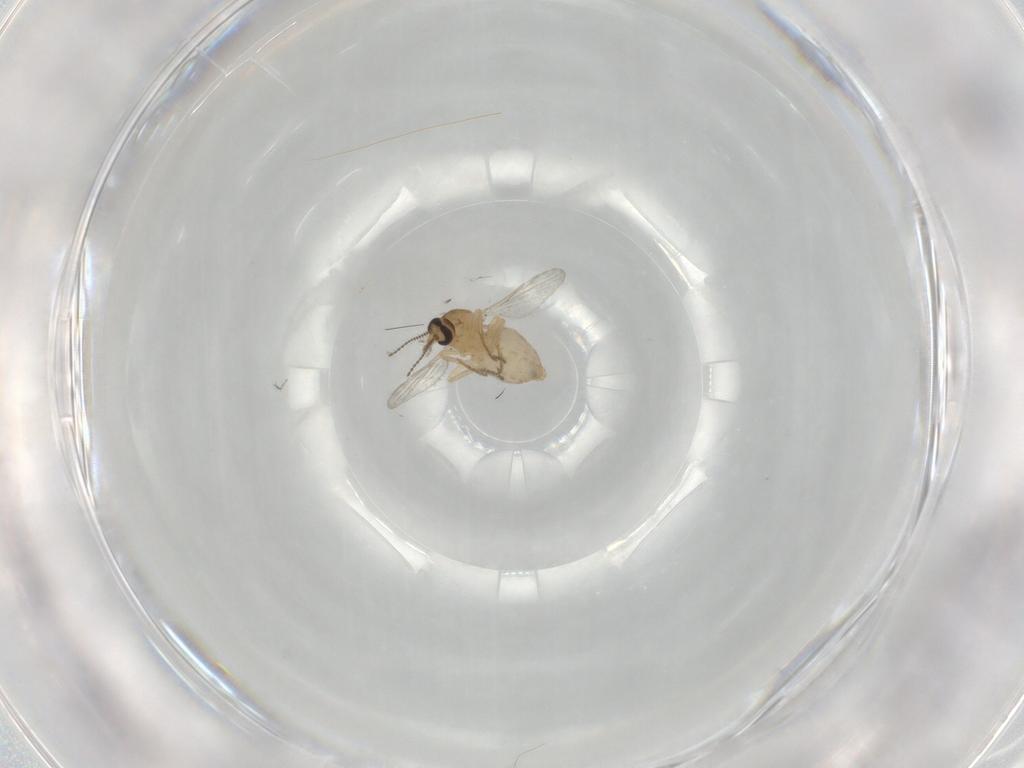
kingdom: Animalia
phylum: Arthropoda
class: Insecta
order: Diptera
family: Ceratopogonidae
